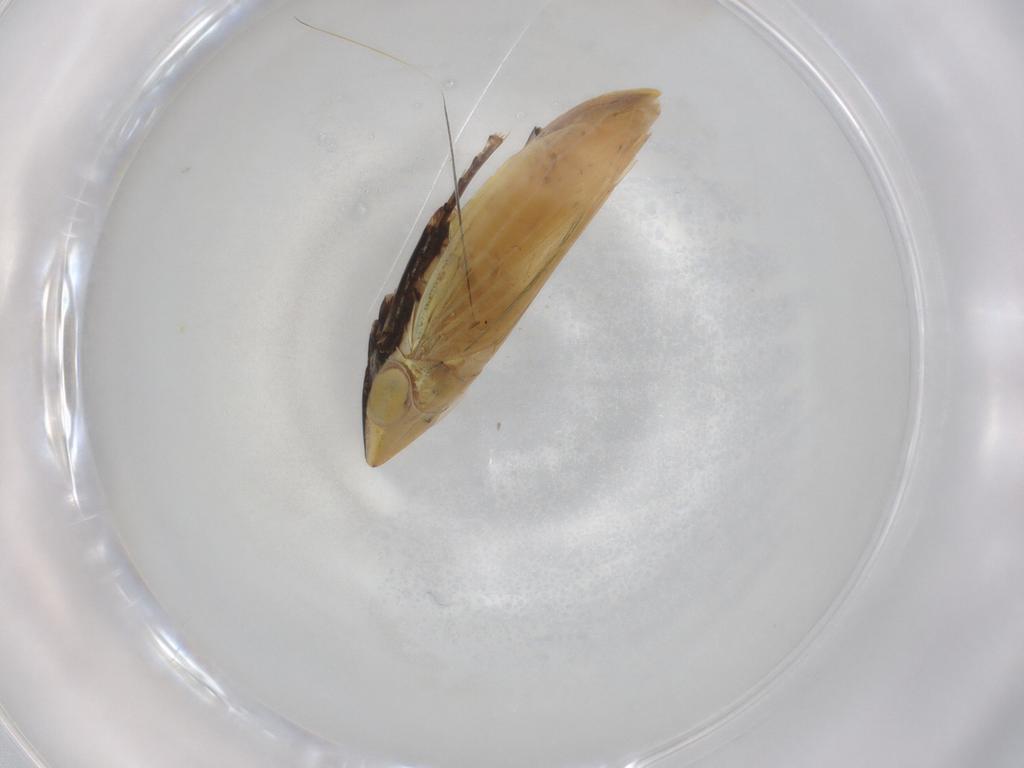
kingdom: Animalia
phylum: Arthropoda
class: Insecta
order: Hemiptera
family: Cicadellidae
